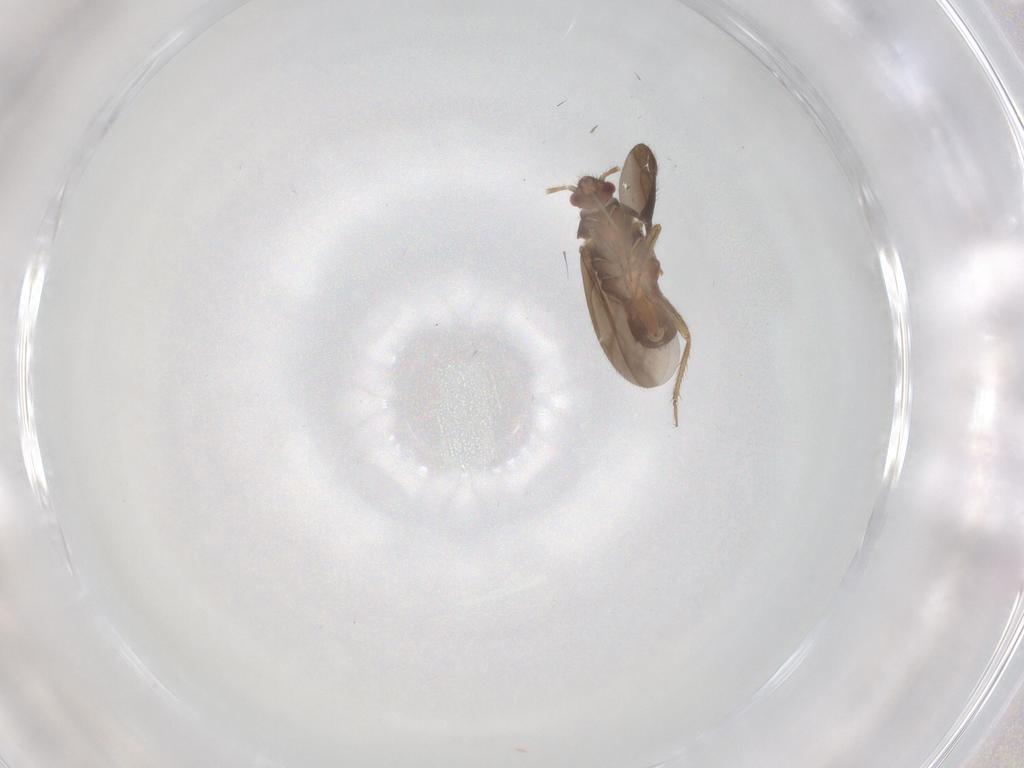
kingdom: Animalia
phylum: Arthropoda
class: Insecta
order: Hemiptera
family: Ceratocombidae
